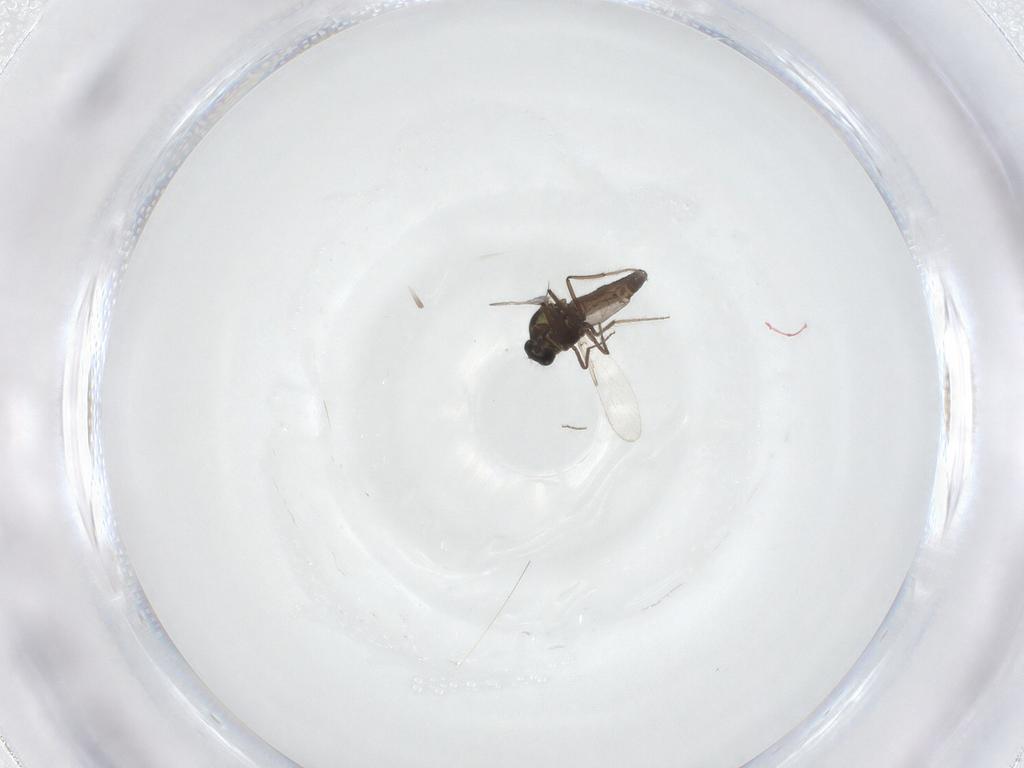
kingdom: Animalia
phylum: Arthropoda
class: Insecta
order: Diptera
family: Ceratopogonidae
